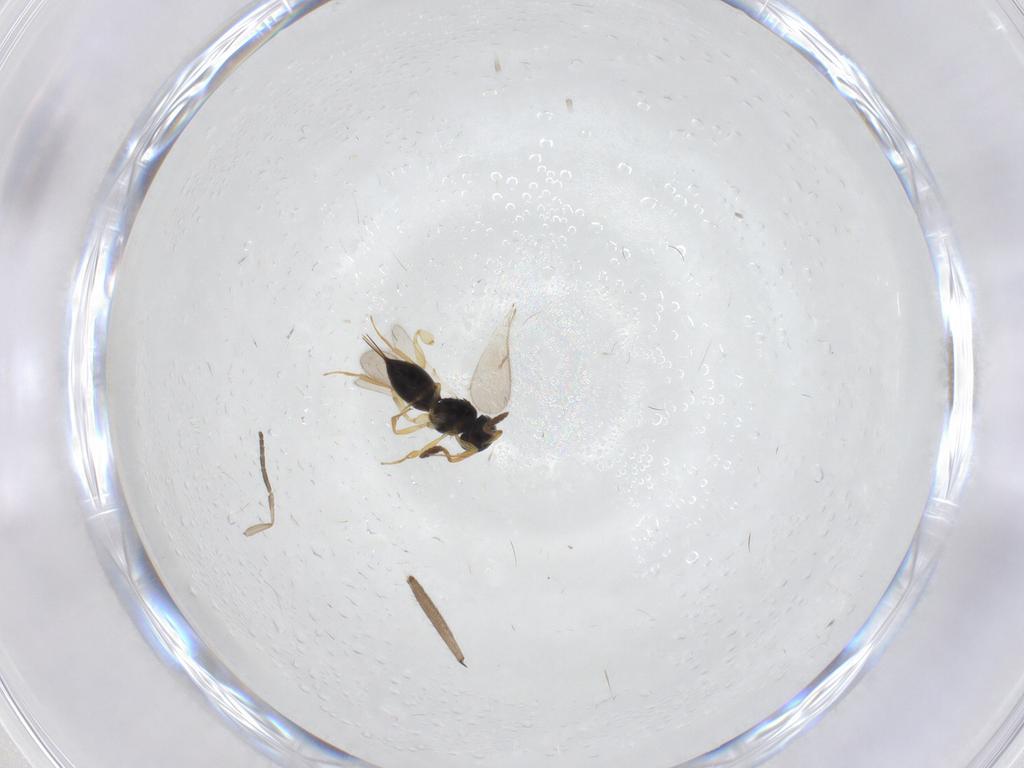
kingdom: Animalia
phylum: Arthropoda
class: Insecta
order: Hymenoptera
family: Scelionidae
